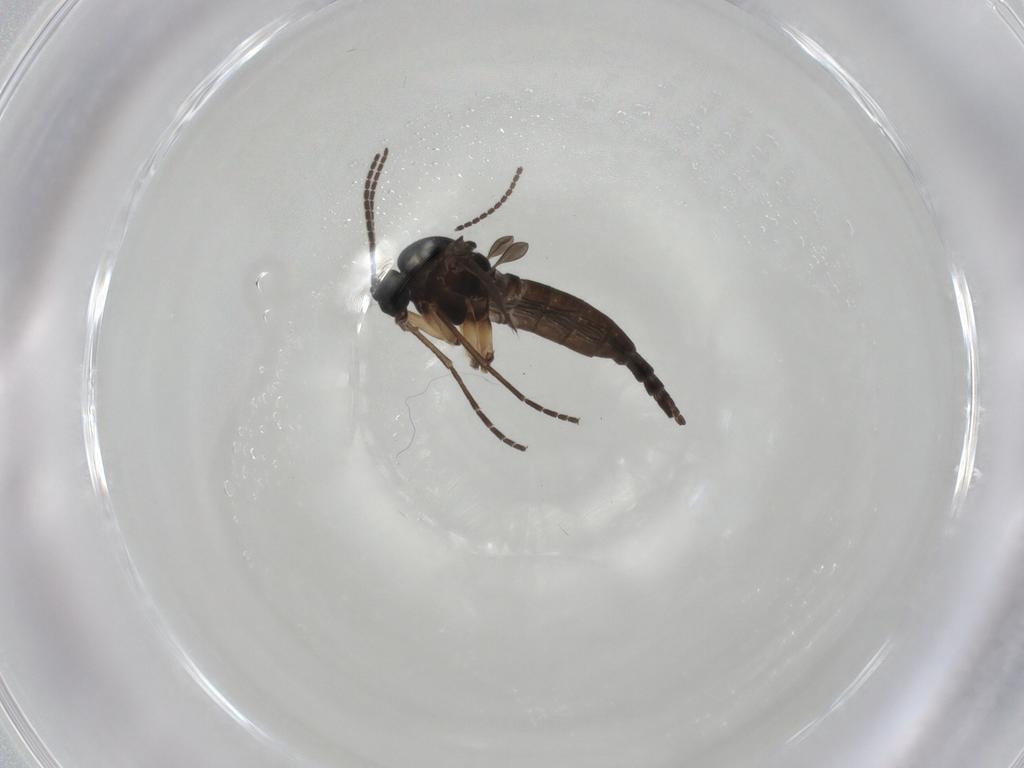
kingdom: Animalia
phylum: Arthropoda
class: Insecta
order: Diptera
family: Sciaridae
